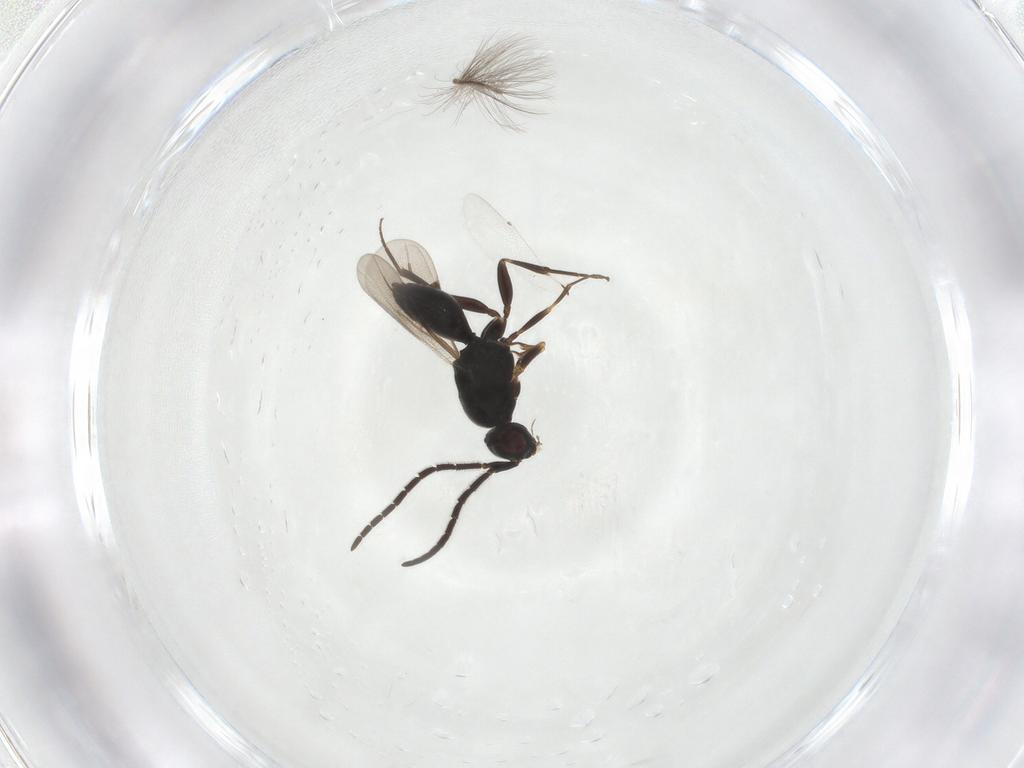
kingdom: Animalia
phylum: Arthropoda
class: Insecta
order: Hymenoptera
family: Megaspilidae
